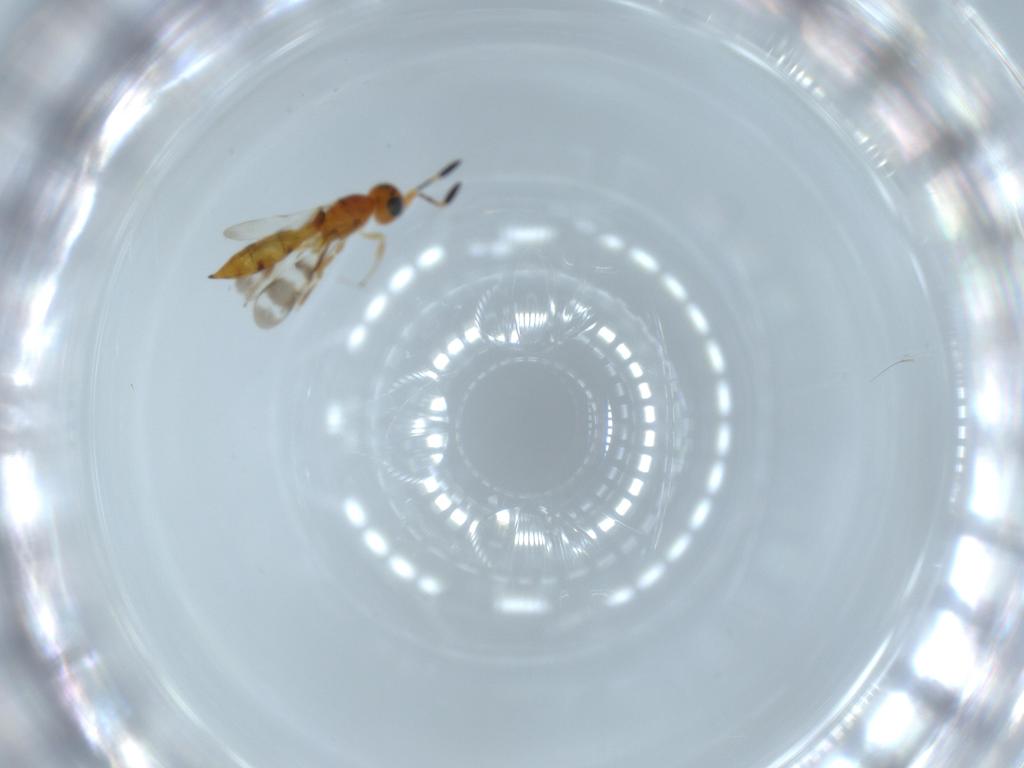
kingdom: Animalia
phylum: Arthropoda
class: Insecta
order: Hymenoptera
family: Scelionidae
